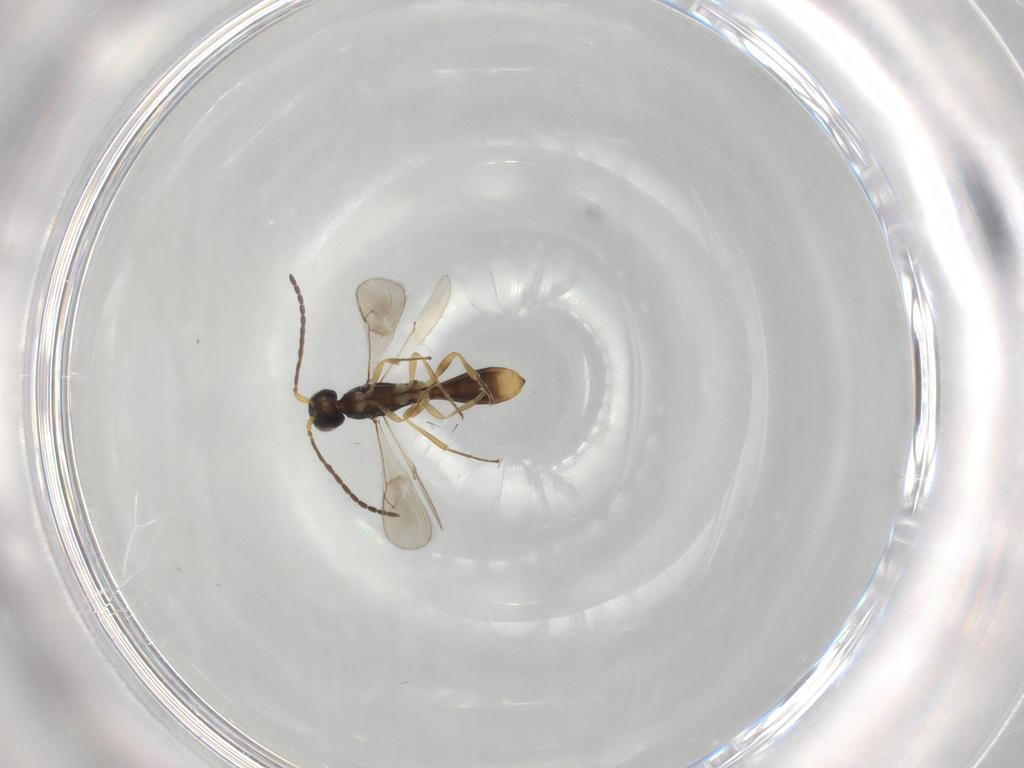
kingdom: Animalia
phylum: Arthropoda
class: Insecta
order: Hymenoptera
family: Scelionidae
